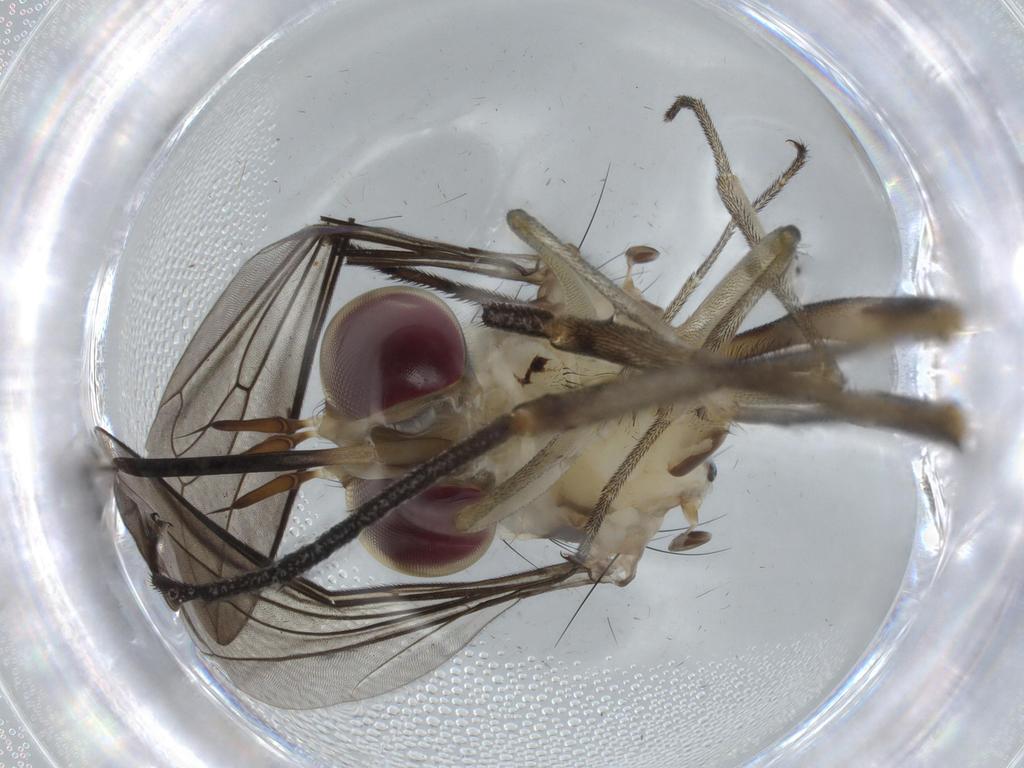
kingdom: Animalia
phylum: Arthropoda
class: Insecta
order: Diptera
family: Conopidae
